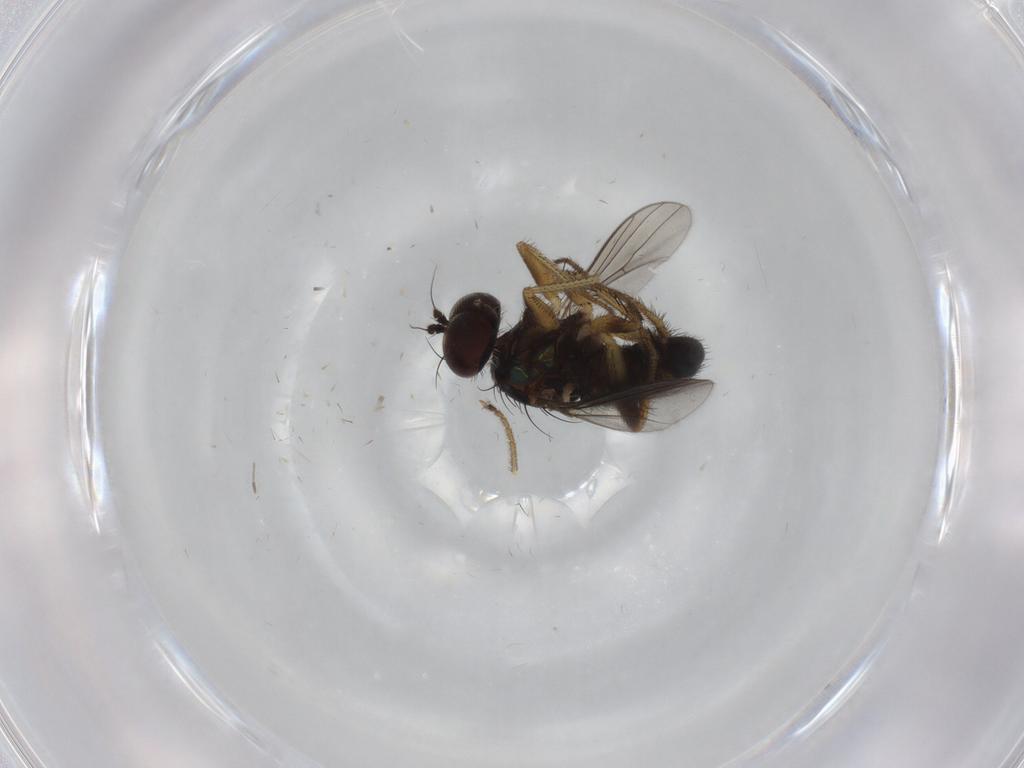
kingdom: Animalia
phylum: Arthropoda
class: Insecta
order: Diptera
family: Dolichopodidae
